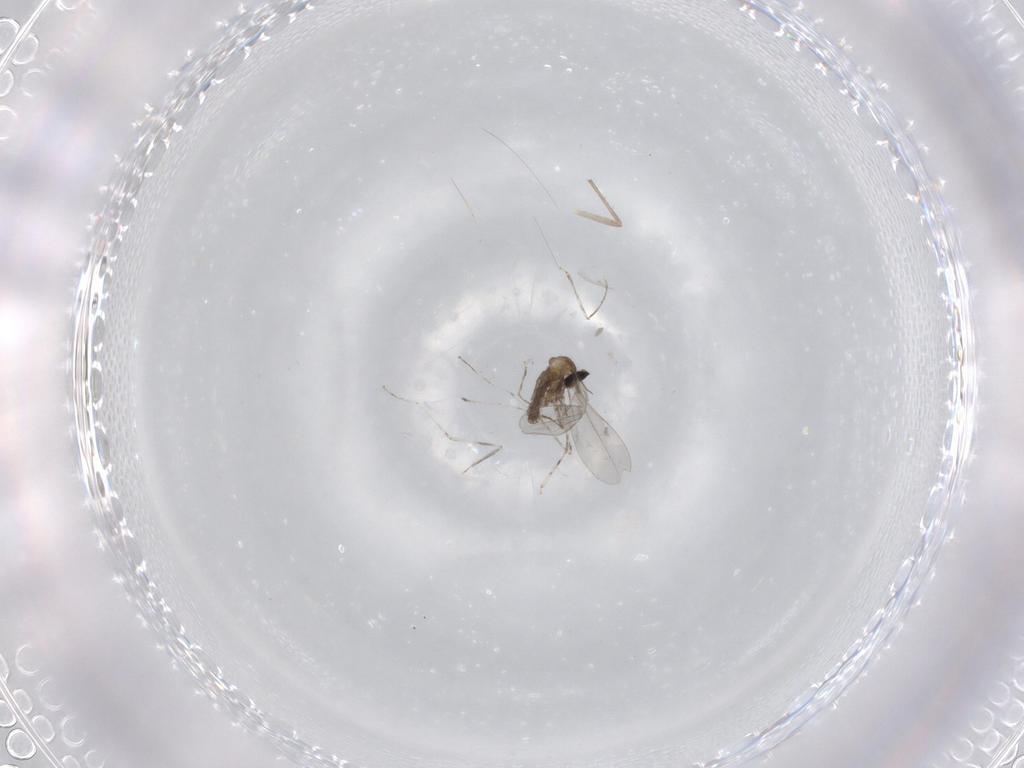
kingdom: Animalia
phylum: Arthropoda
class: Insecta
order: Diptera
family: Cecidomyiidae
